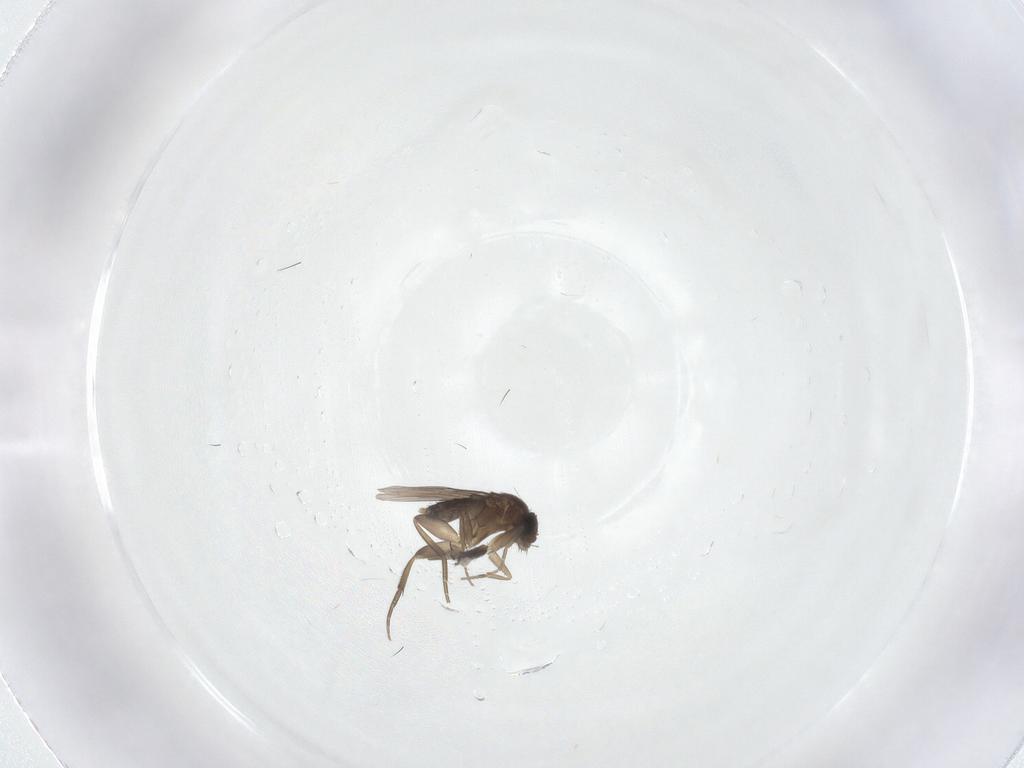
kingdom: Animalia
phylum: Arthropoda
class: Insecta
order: Diptera
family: Phoridae
